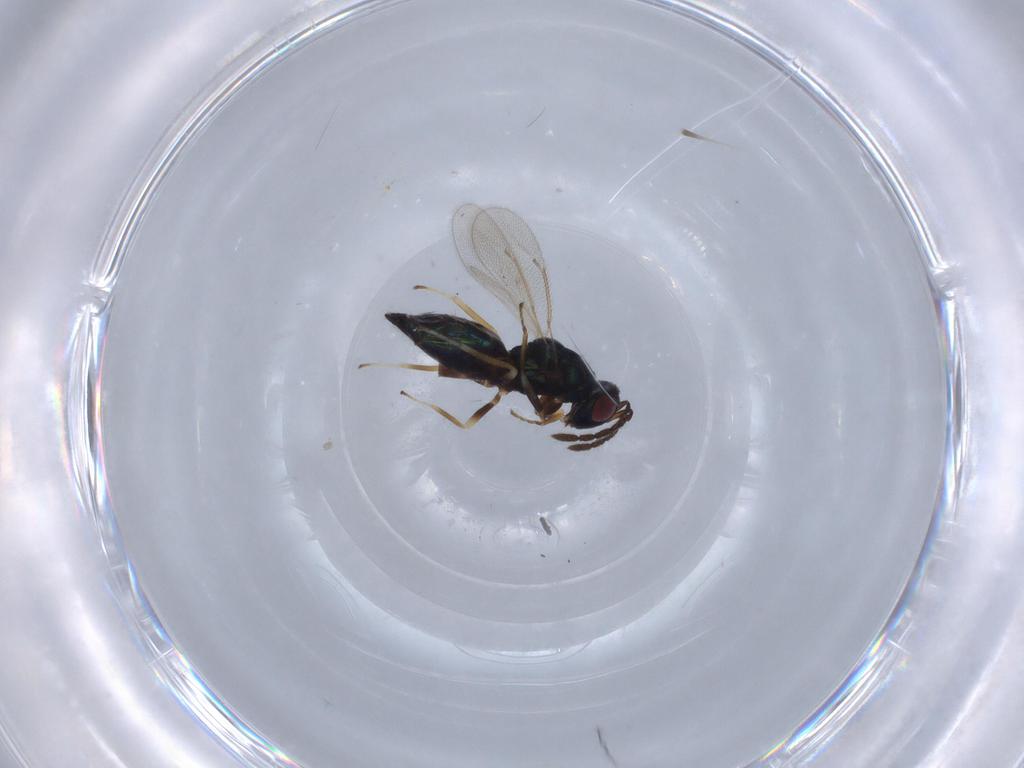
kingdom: Animalia
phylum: Arthropoda
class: Insecta
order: Hymenoptera
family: Eulophidae
